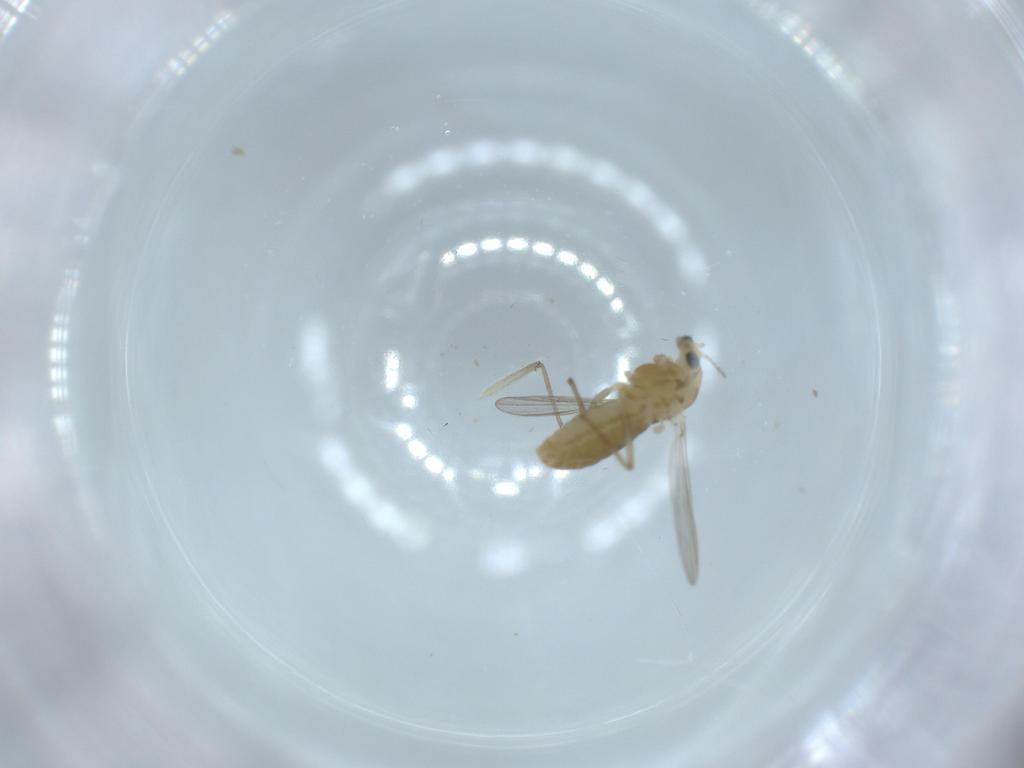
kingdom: Animalia
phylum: Arthropoda
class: Insecta
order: Diptera
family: Chironomidae
